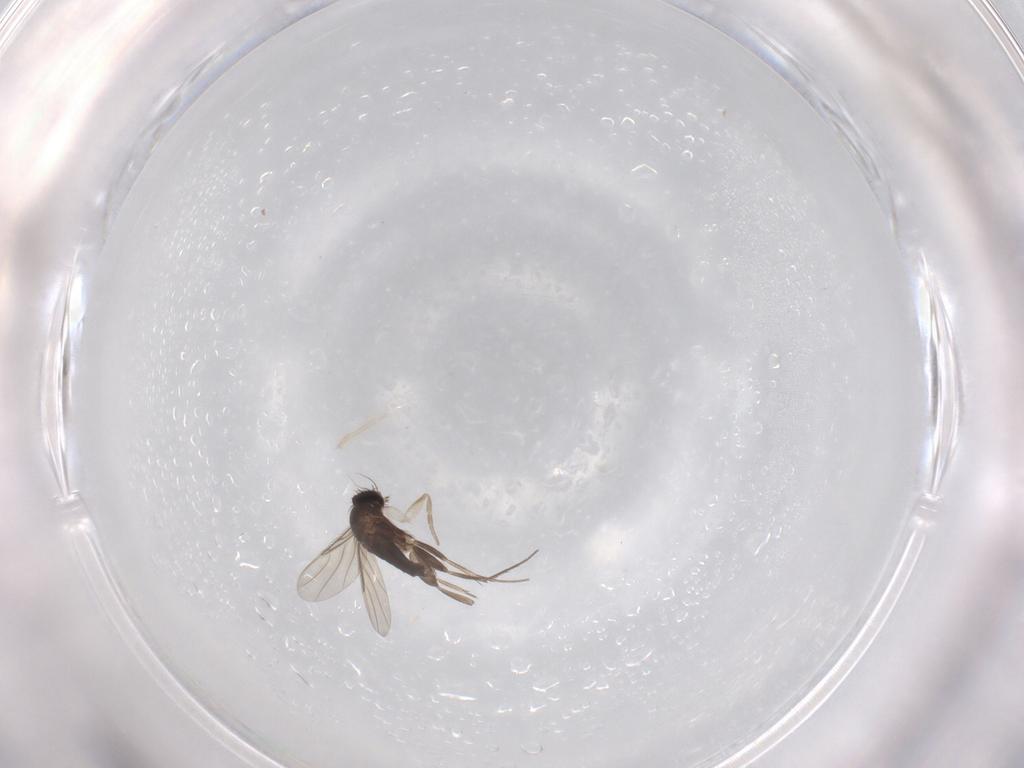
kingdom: Animalia
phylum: Arthropoda
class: Insecta
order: Diptera
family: Phoridae
